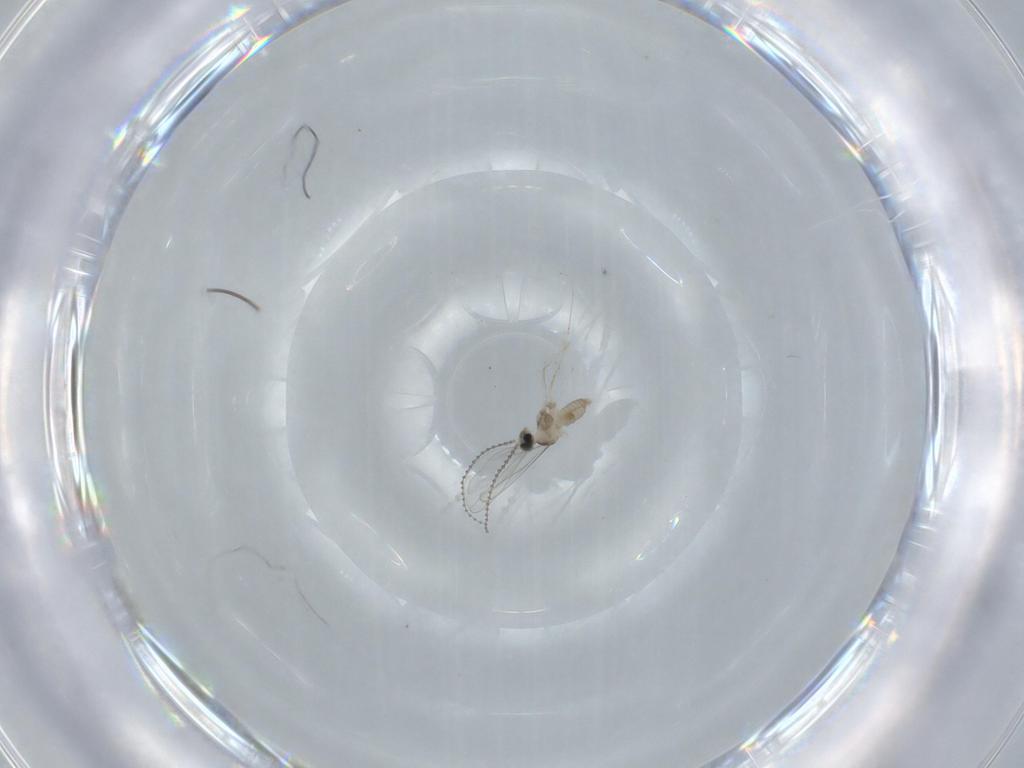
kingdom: Animalia
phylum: Arthropoda
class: Insecta
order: Diptera
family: Cecidomyiidae
